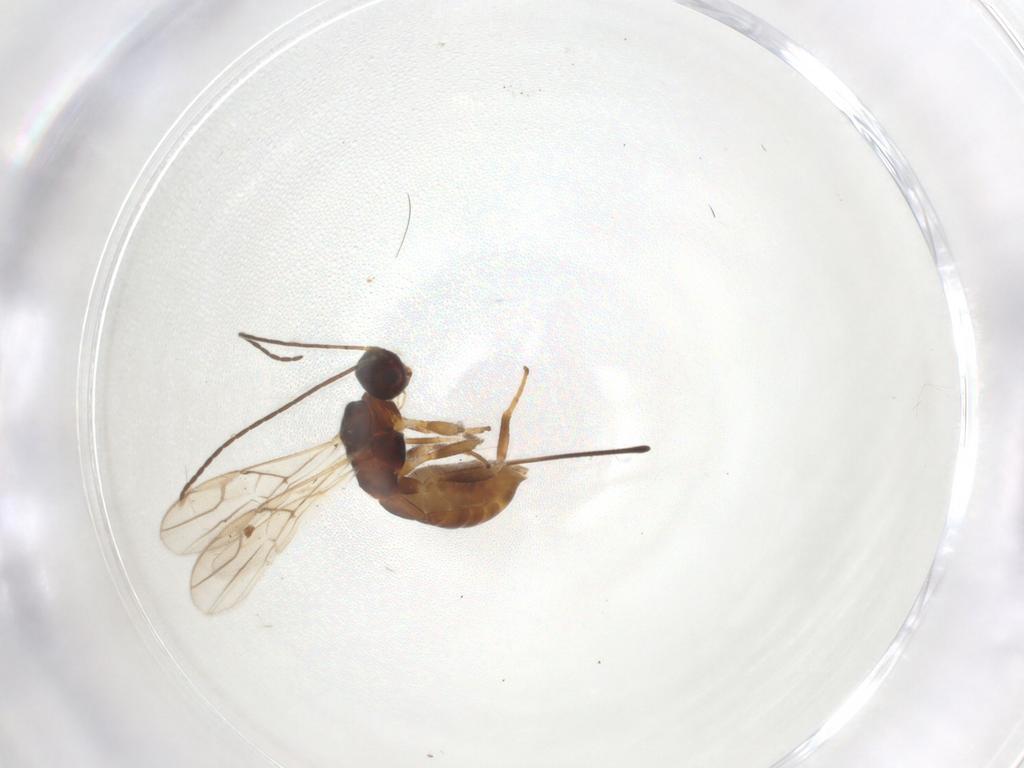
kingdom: Animalia
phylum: Arthropoda
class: Insecta
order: Hymenoptera
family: Braconidae
